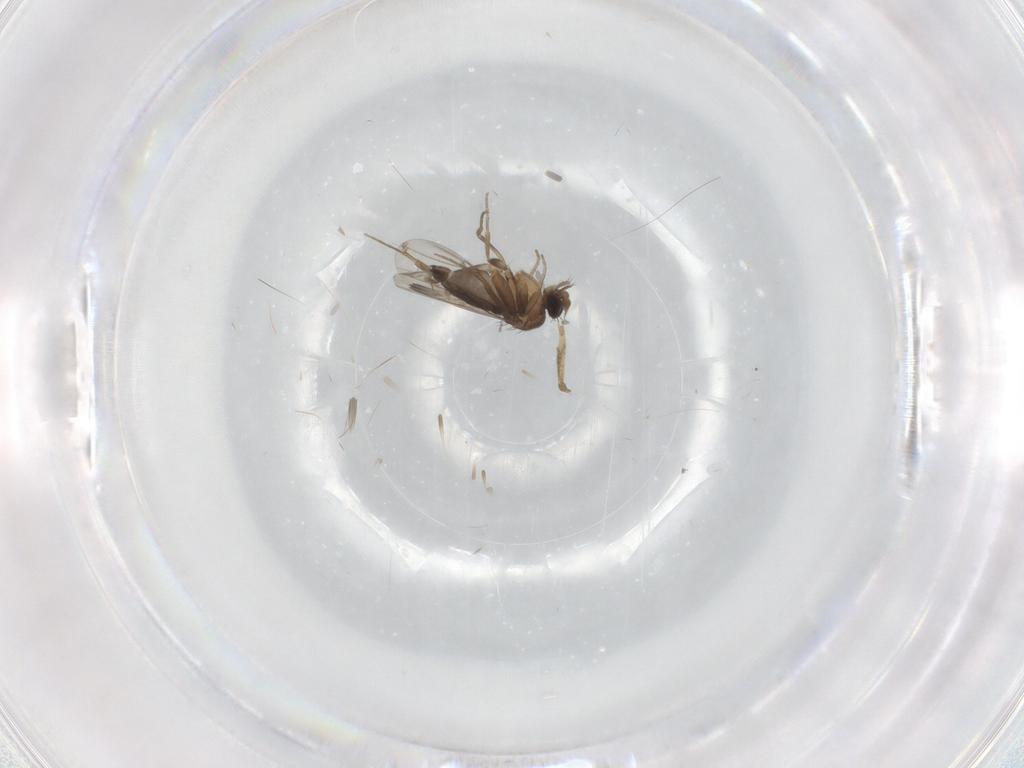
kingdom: Animalia
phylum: Arthropoda
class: Insecta
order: Diptera
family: Phoridae
